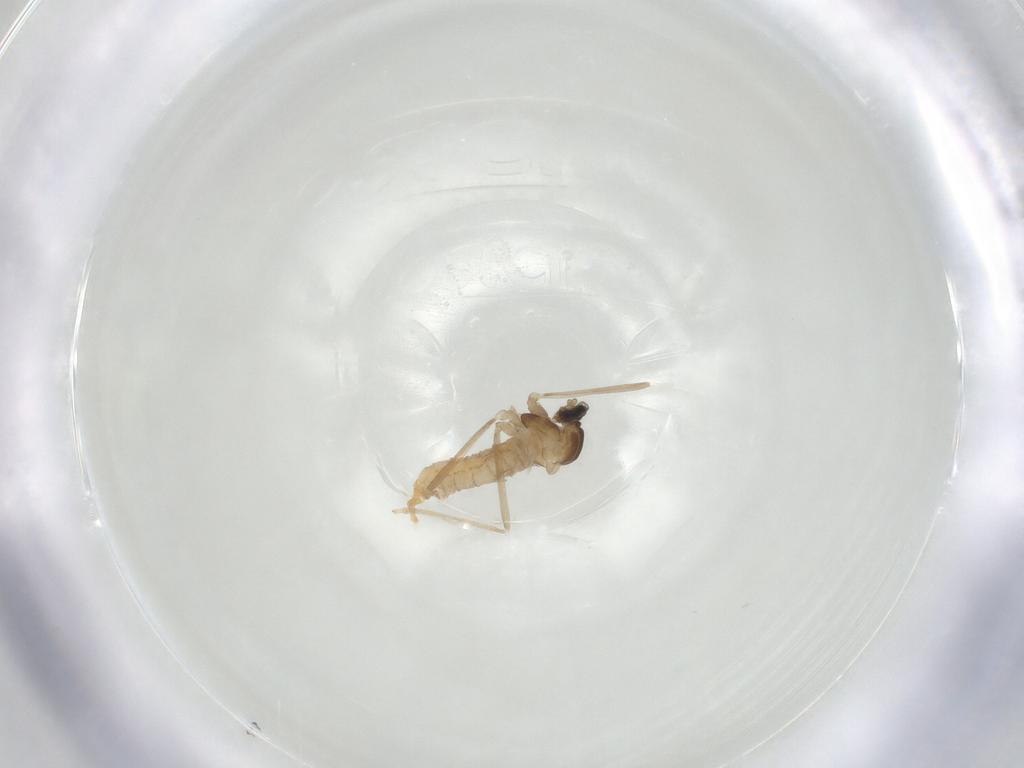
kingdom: Animalia
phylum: Arthropoda
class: Insecta
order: Diptera
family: Cecidomyiidae
